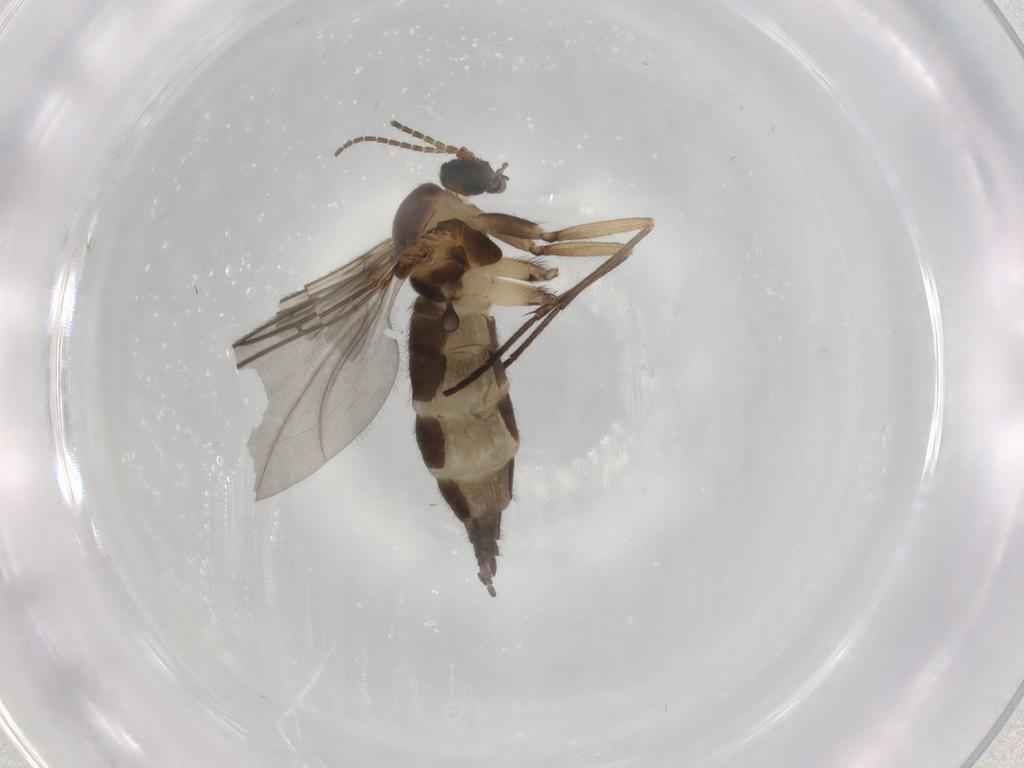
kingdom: Animalia
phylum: Arthropoda
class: Insecta
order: Diptera
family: Sciaridae
